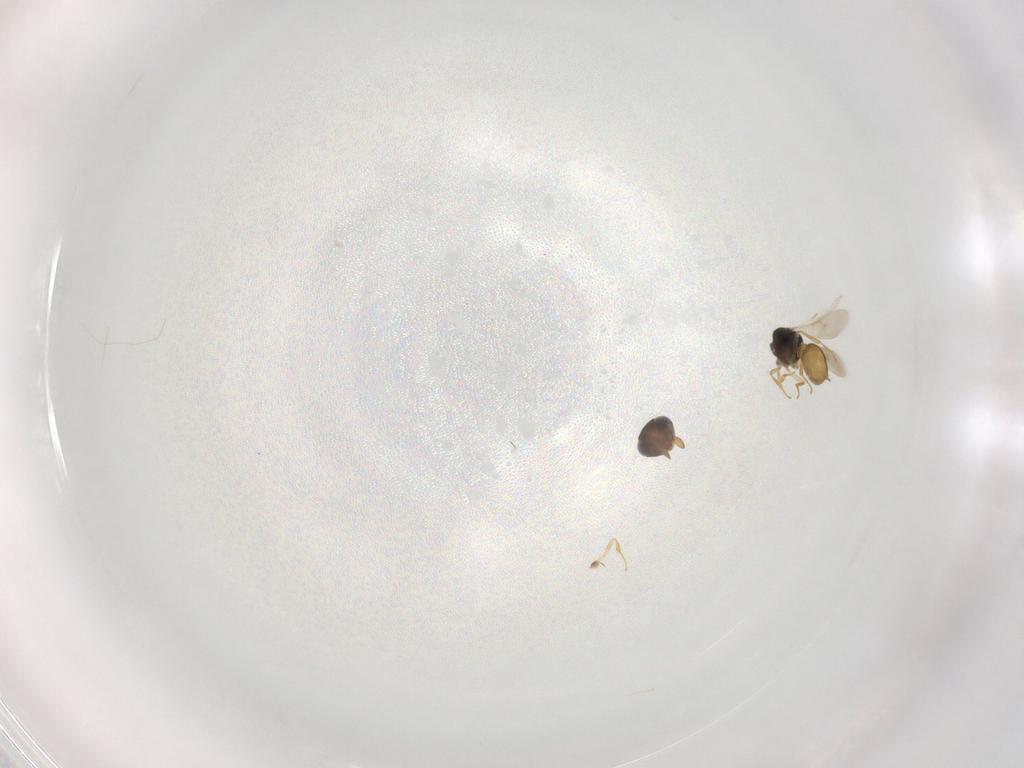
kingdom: Animalia
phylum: Arthropoda
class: Insecta
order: Hymenoptera
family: Scelionidae
